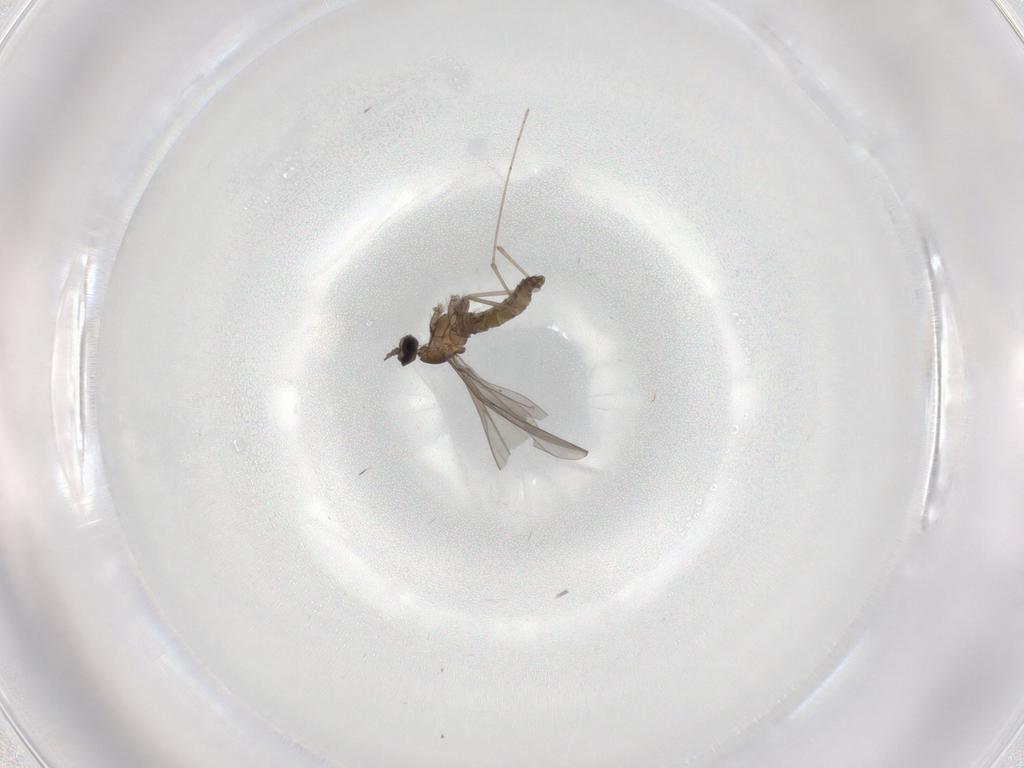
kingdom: Animalia
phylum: Arthropoda
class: Insecta
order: Diptera
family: Cecidomyiidae
